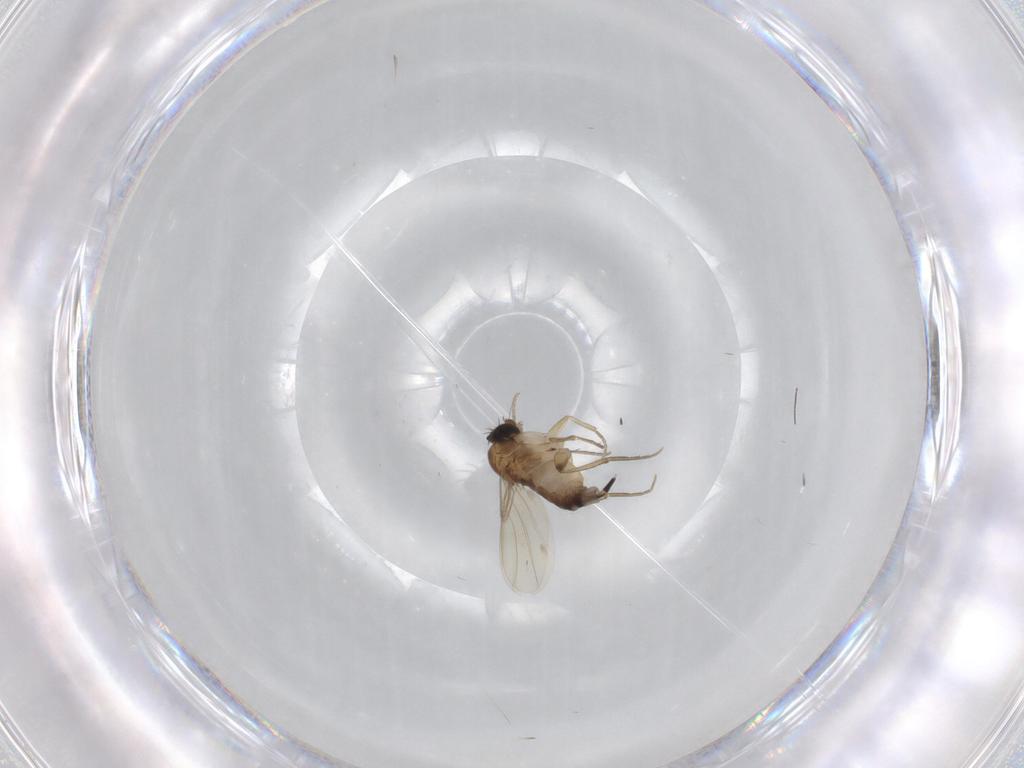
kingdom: Animalia
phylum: Arthropoda
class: Insecta
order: Diptera
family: Phoridae
